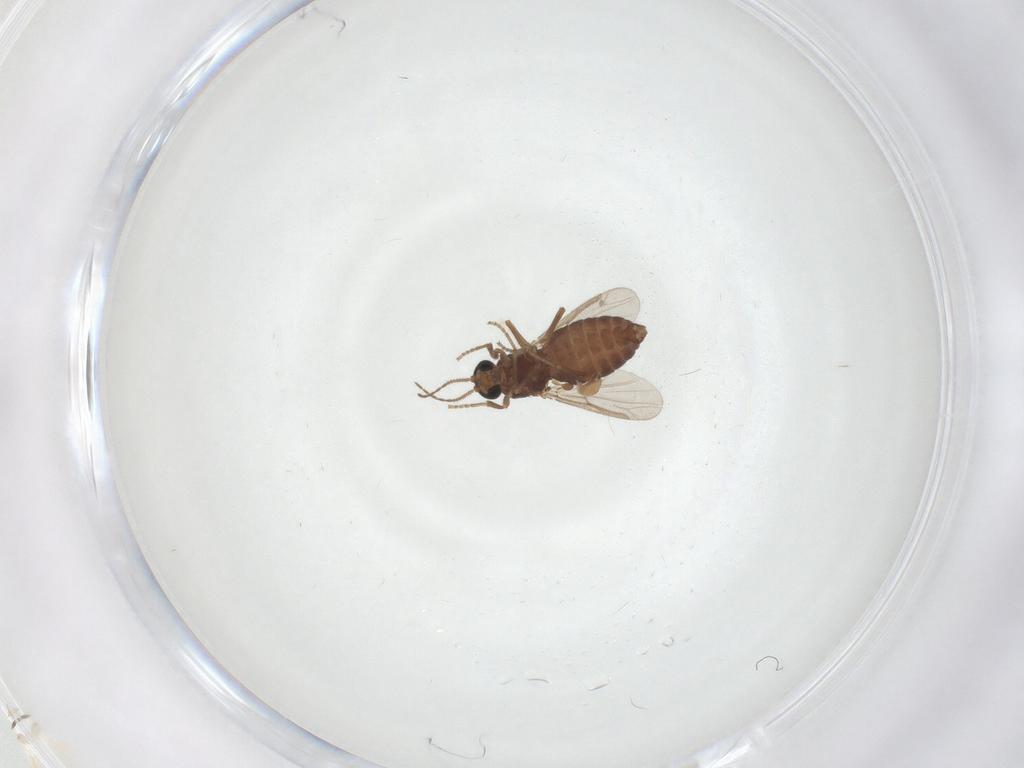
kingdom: Animalia
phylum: Arthropoda
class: Insecta
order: Diptera
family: Ceratopogonidae
